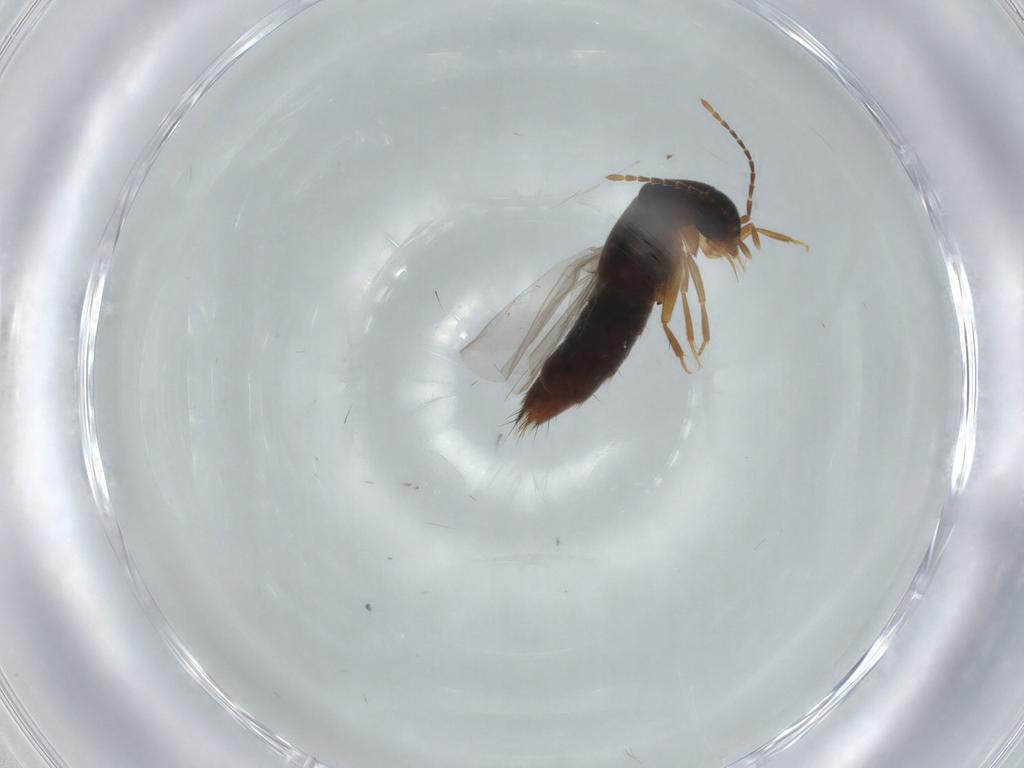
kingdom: Animalia
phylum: Arthropoda
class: Insecta
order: Coleoptera
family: Staphylinidae
